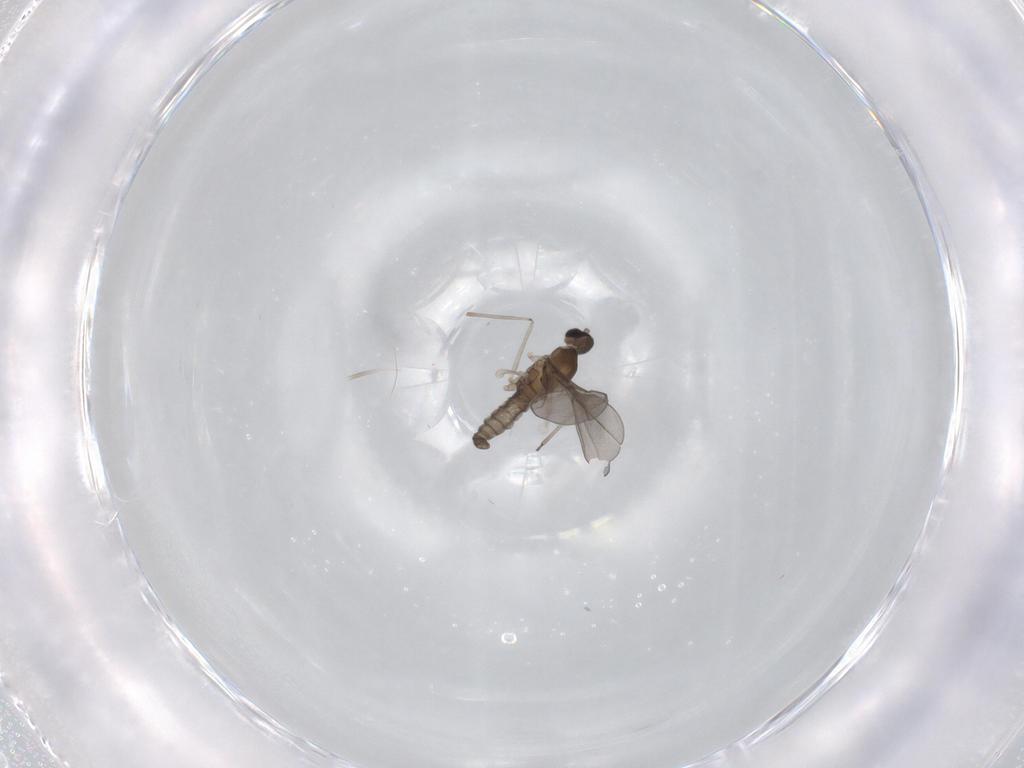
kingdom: Animalia
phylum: Arthropoda
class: Insecta
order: Diptera
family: Cecidomyiidae
